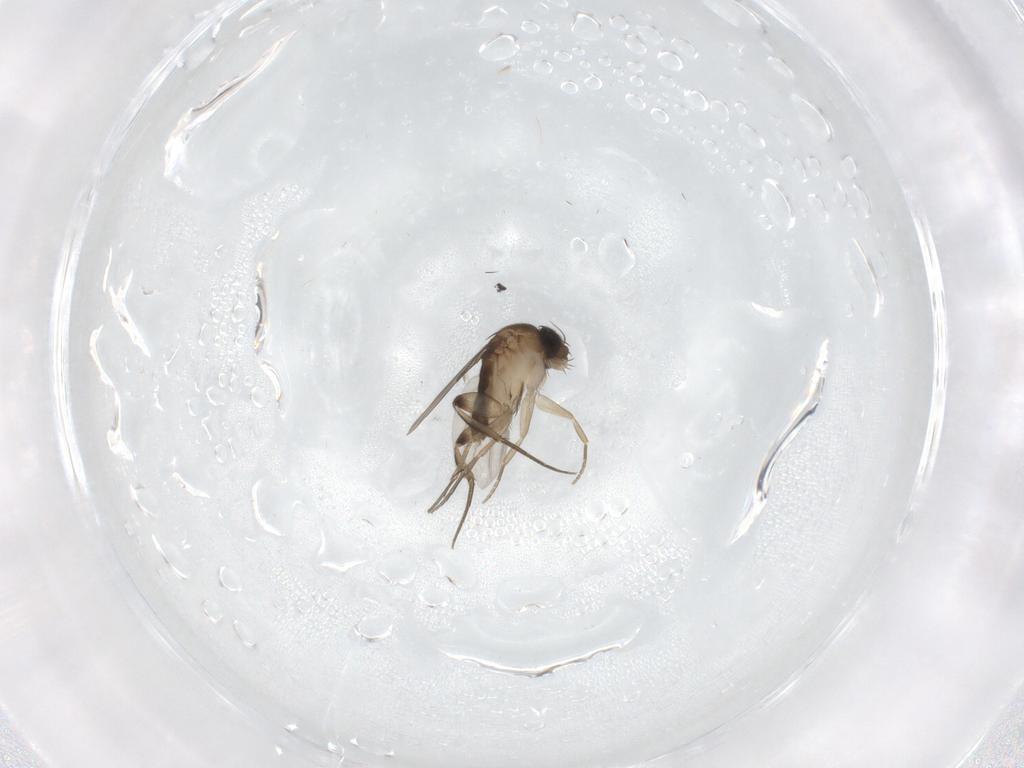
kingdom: Animalia
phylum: Arthropoda
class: Insecta
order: Diptera
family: Phoridae
